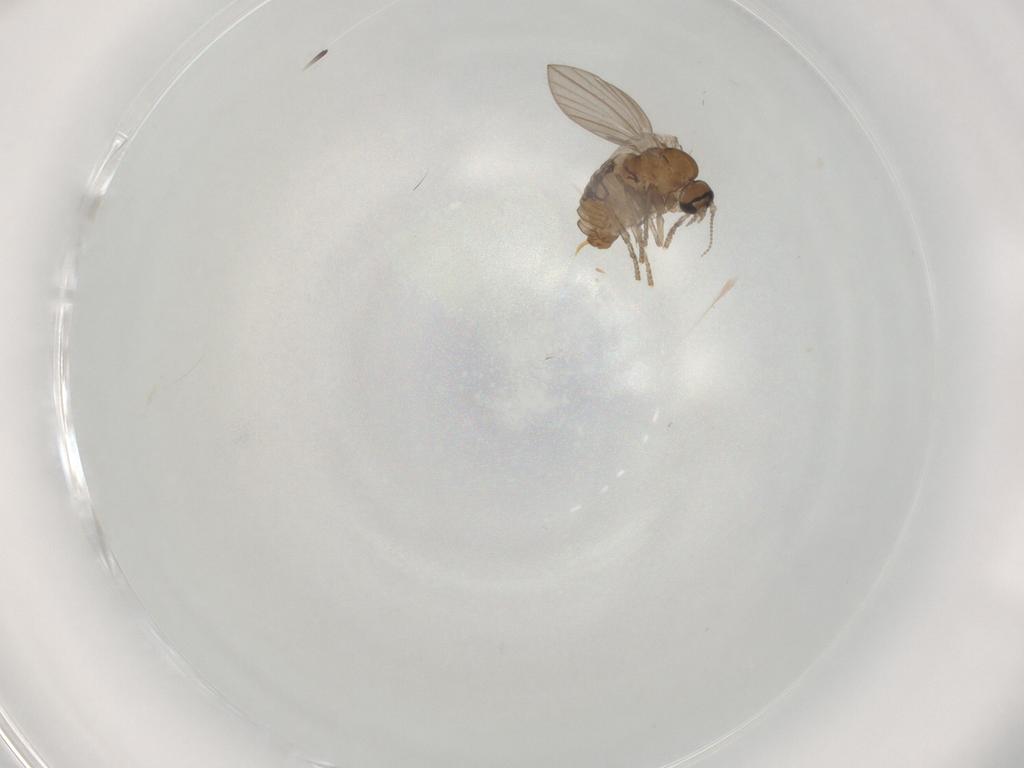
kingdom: Animalia
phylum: Arthropoda
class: Insecta
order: Diptera
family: Psychodidae
